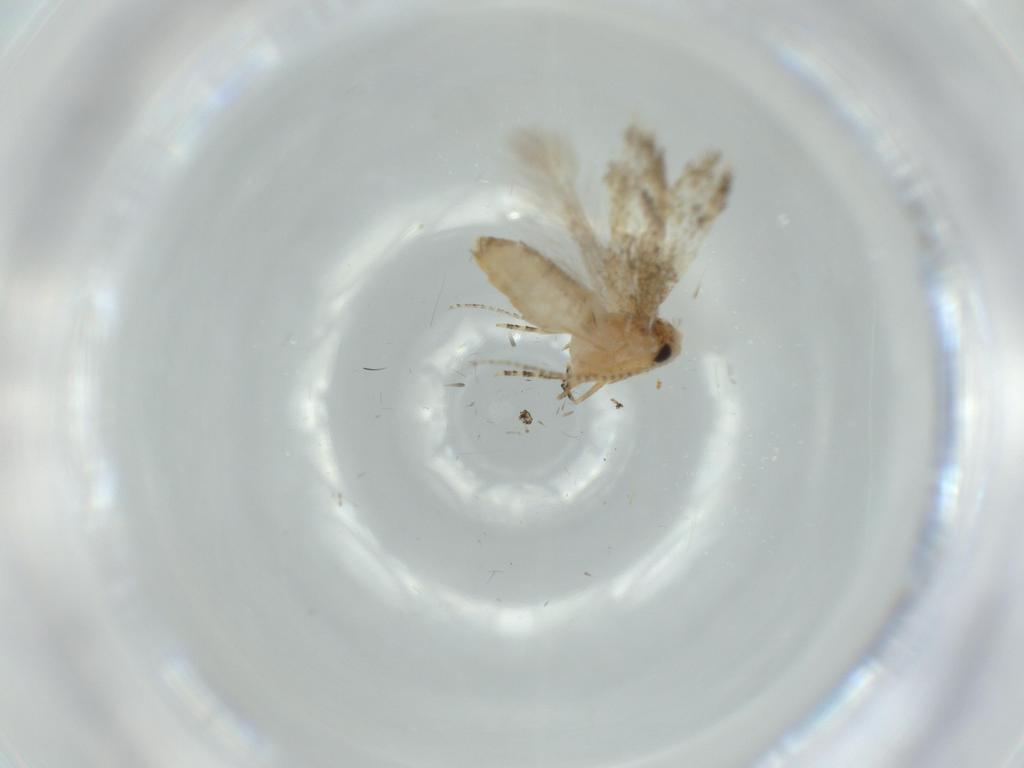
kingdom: Animalia
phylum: Arthropoda
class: Insecta
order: Lepidoptera
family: Bucculatricidae
